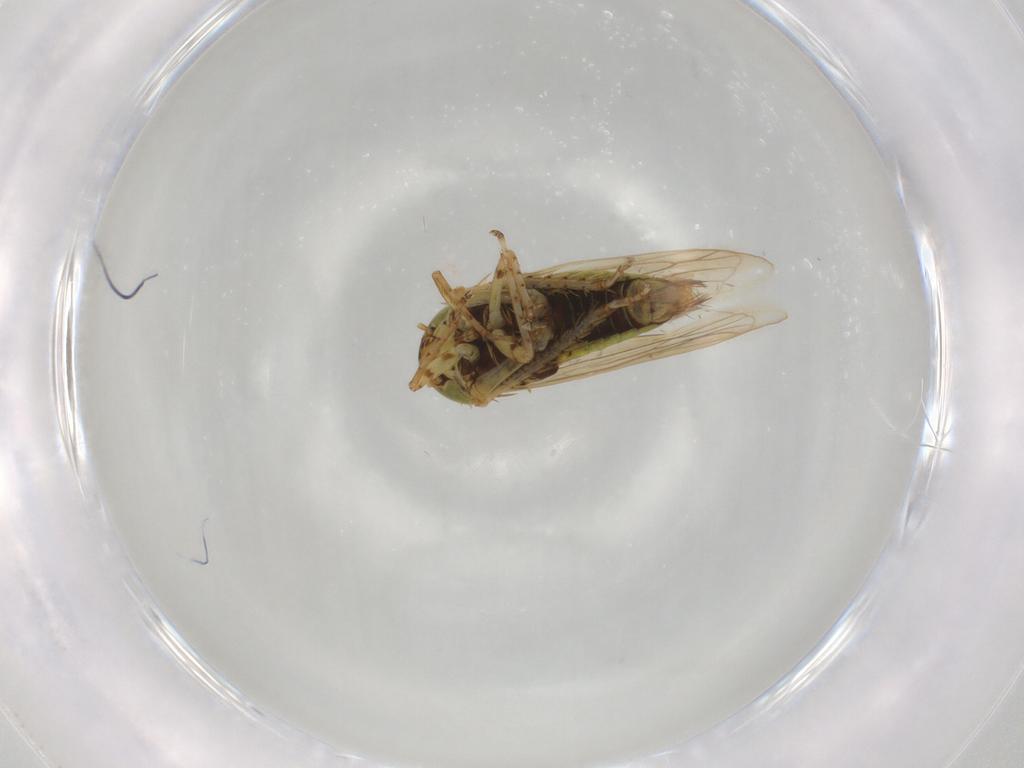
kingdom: Animalia
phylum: Arthropoda
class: Insecta
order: Hemiptera
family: Cicadellidae
